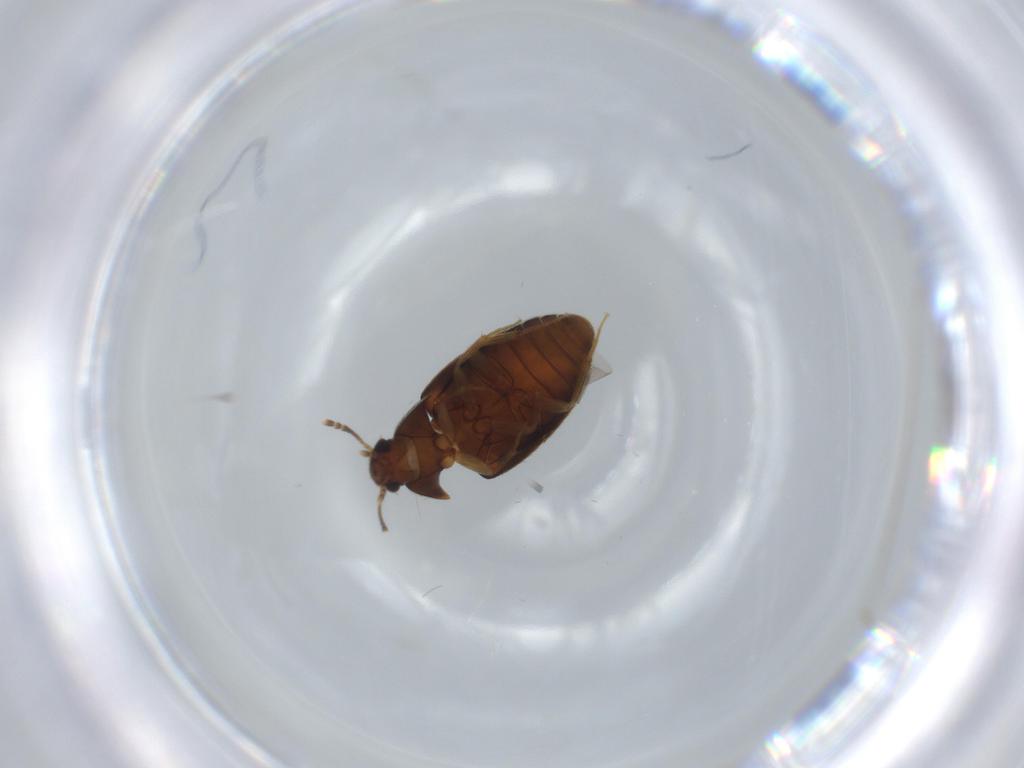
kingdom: Animalia
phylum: Arthropoda
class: Insecta
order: Coleoptera
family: Mycetophagidae
